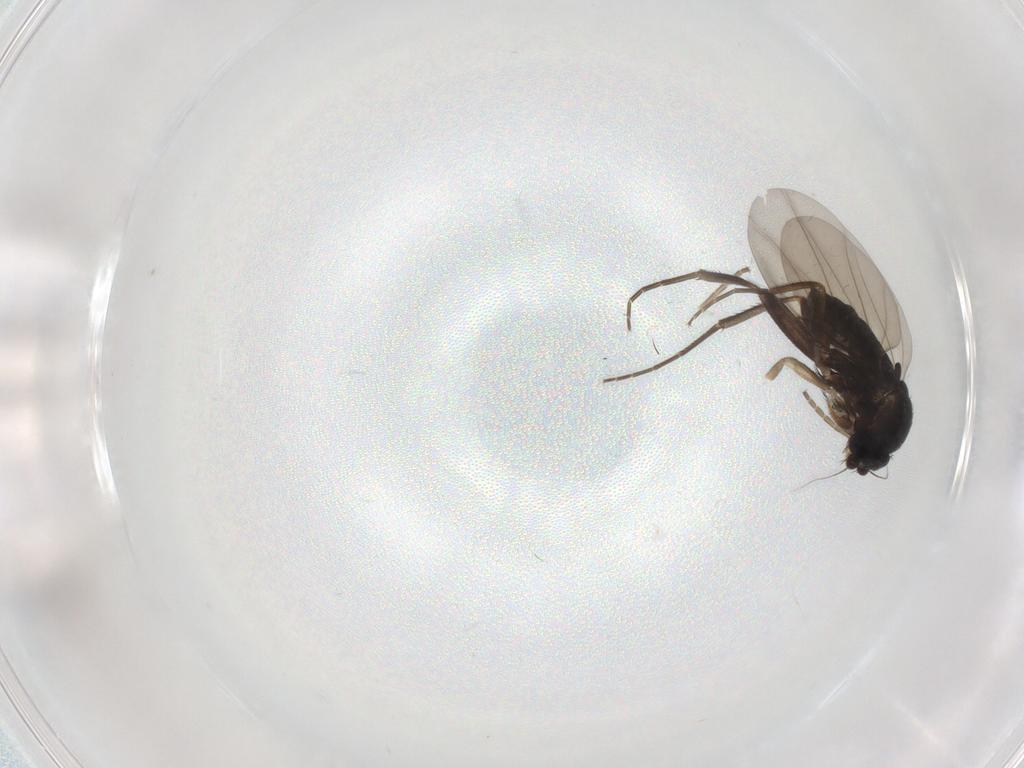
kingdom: Animalia
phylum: Arthropoda
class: Insecta
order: Diptera
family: Phoridae
